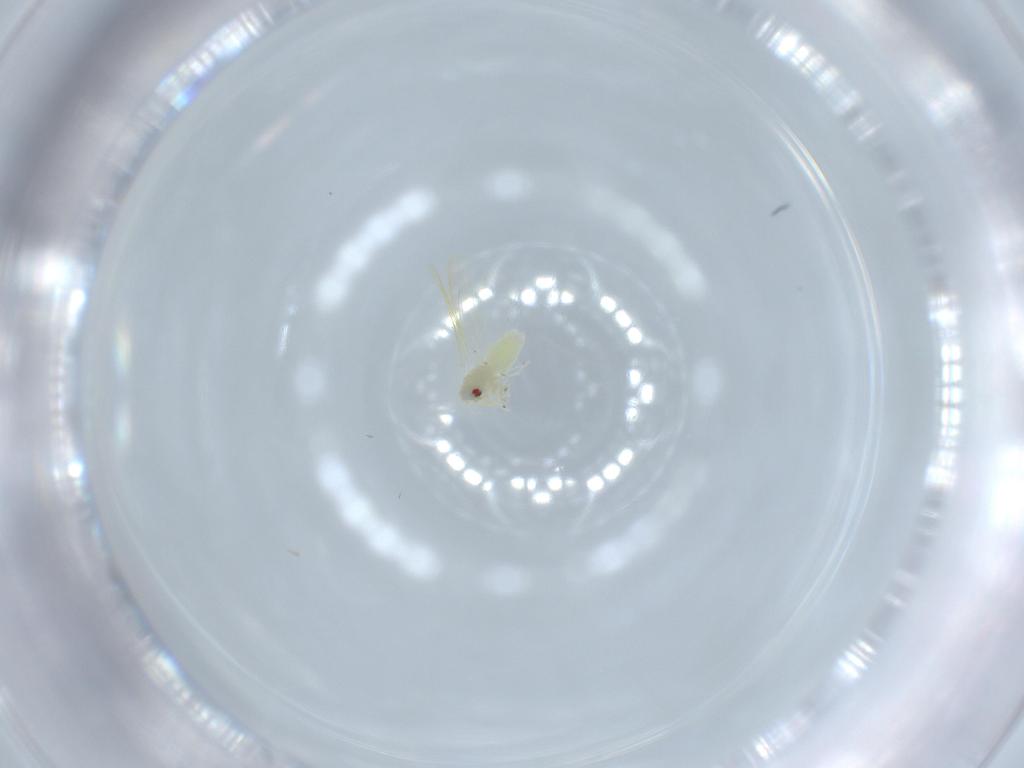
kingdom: Animalia
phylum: Arthropoda
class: Insecta
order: Hemiptera
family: Aleyrodidae
